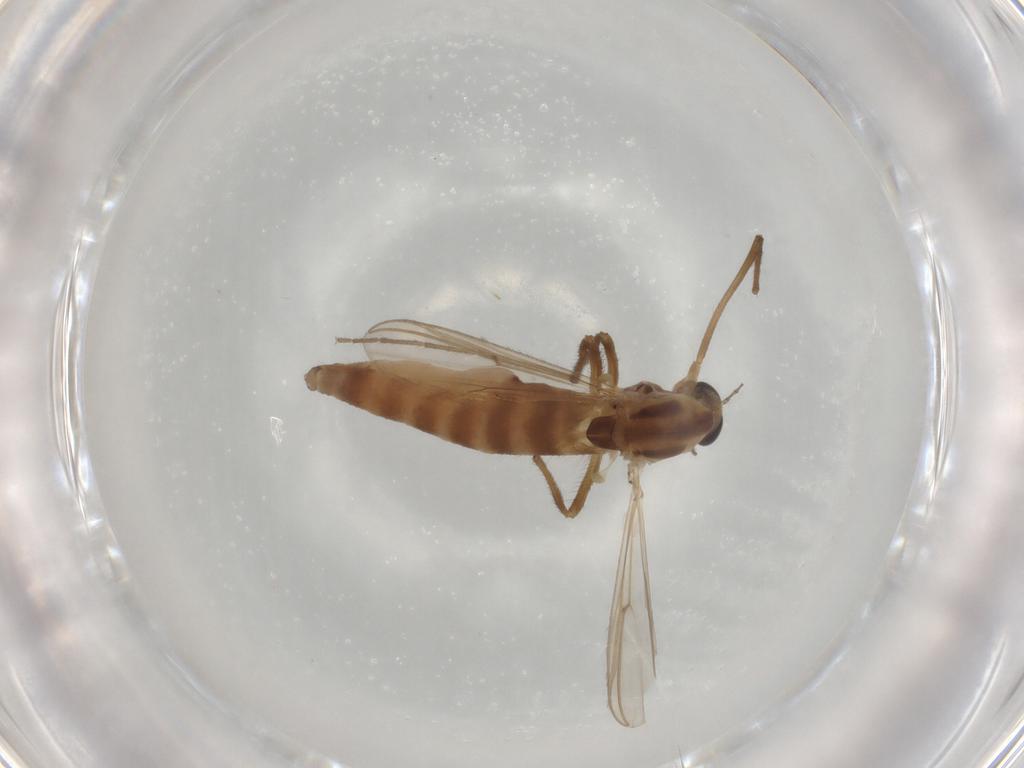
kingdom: Animalia
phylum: Arthropoda
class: Insecta
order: Diptera
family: Chironomidae
